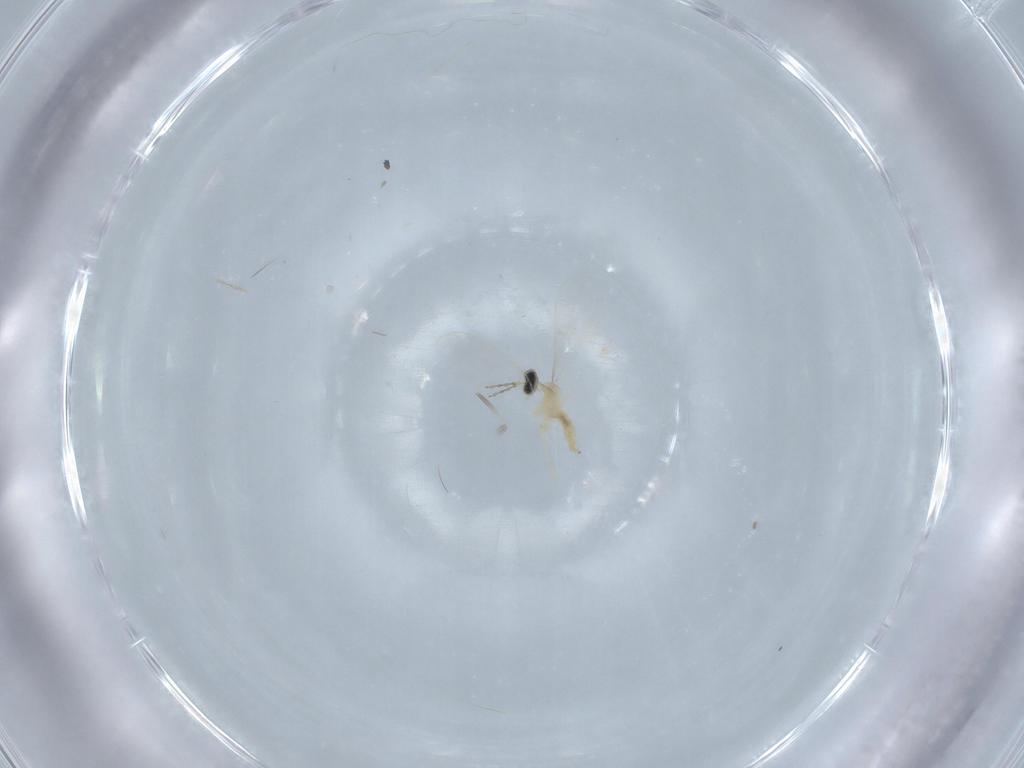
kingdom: Animalia
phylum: Arthropoda
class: Insecta
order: Diptera
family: Cecidomyiidae
